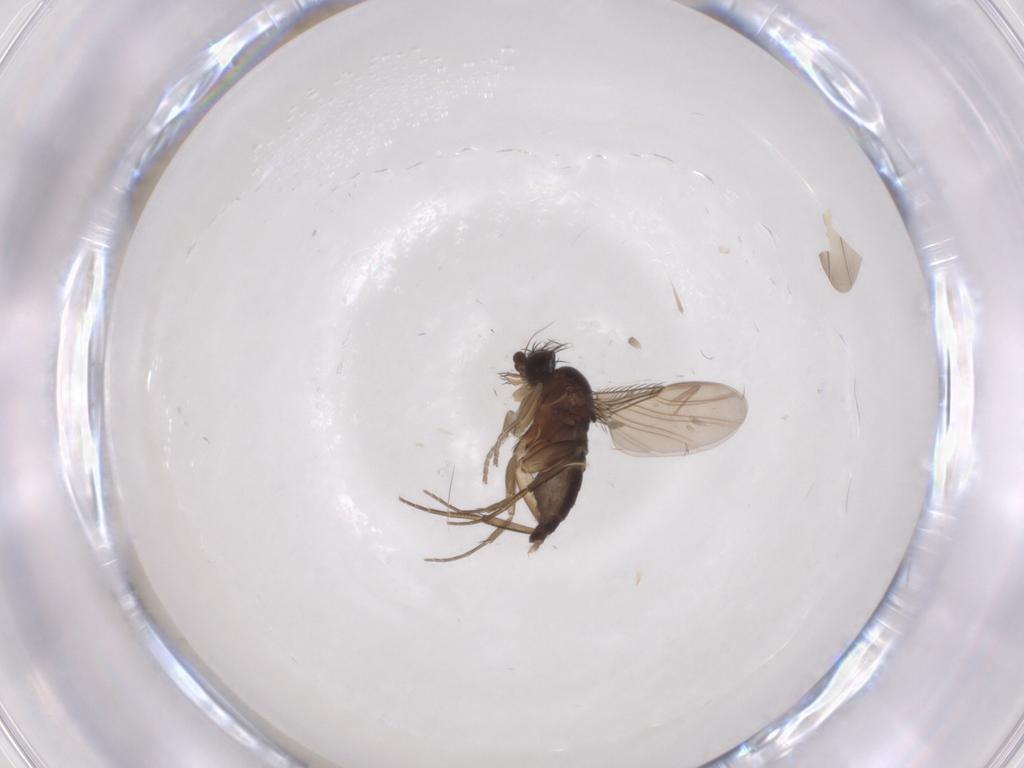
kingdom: Animalia
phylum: Arthropoda
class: Insecta
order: Diptera
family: Phoridae
